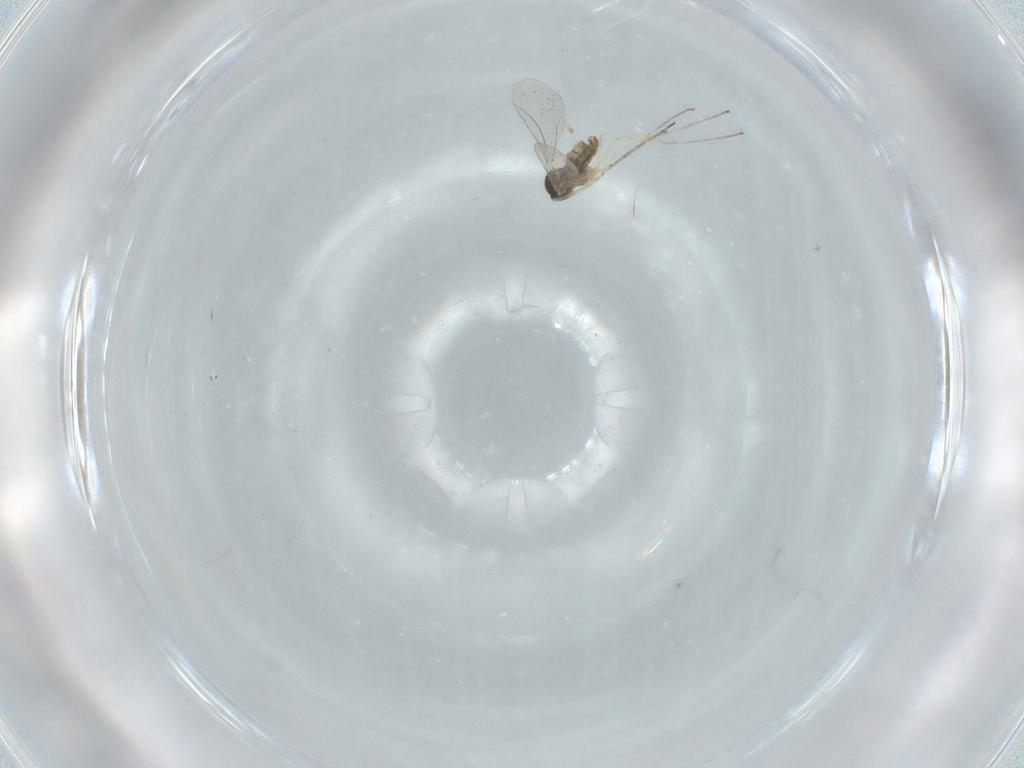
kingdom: Animalia
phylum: Arthropoda
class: Insecta
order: Diptera
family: Cecidomyiidae
